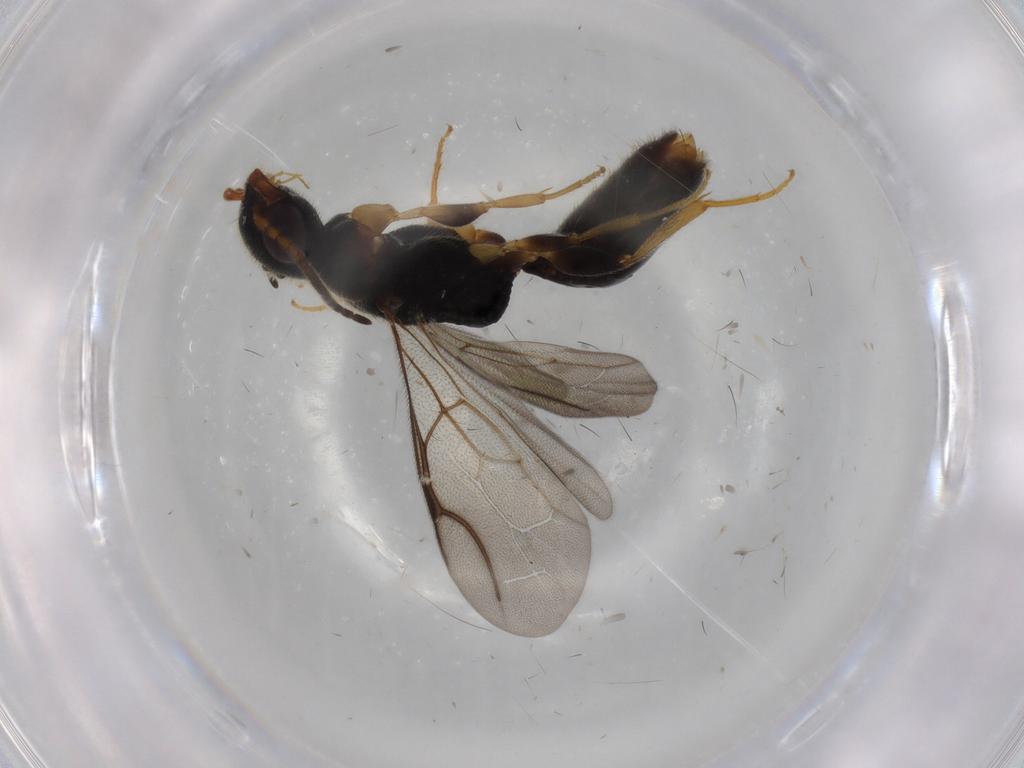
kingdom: Animalia
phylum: Arthropoda
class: Insecta
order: Hymenoptera
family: Bethylidae
